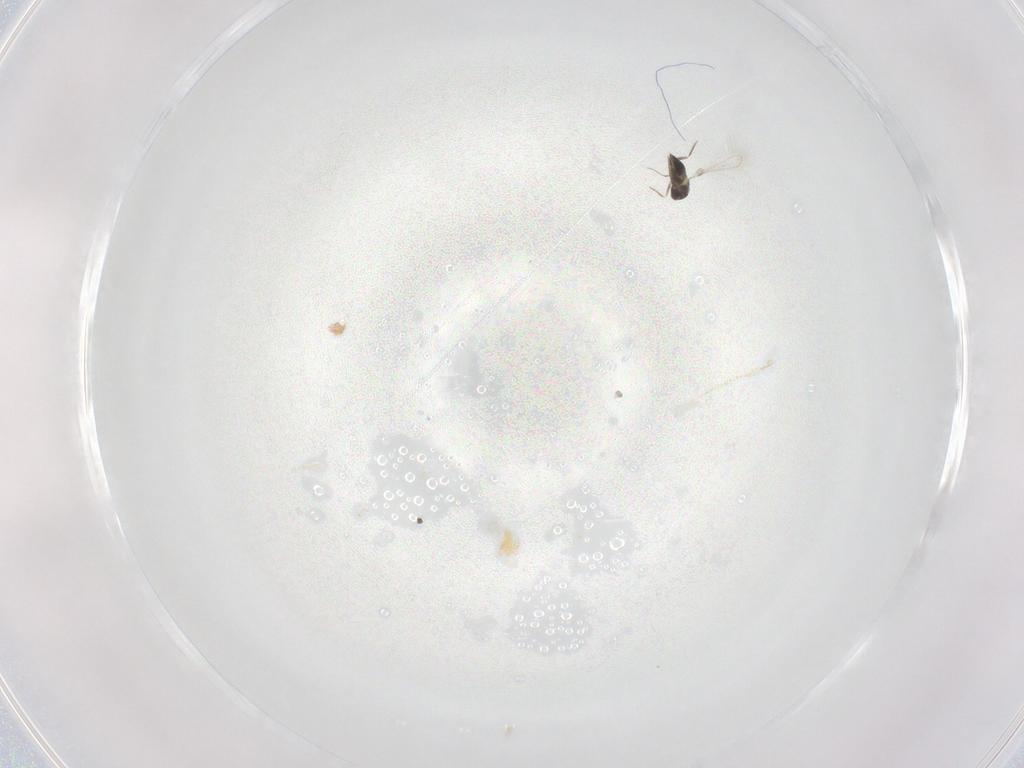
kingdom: Animalia
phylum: Arthropoda
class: Insecta
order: Hymenoptera
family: Mymaridae
